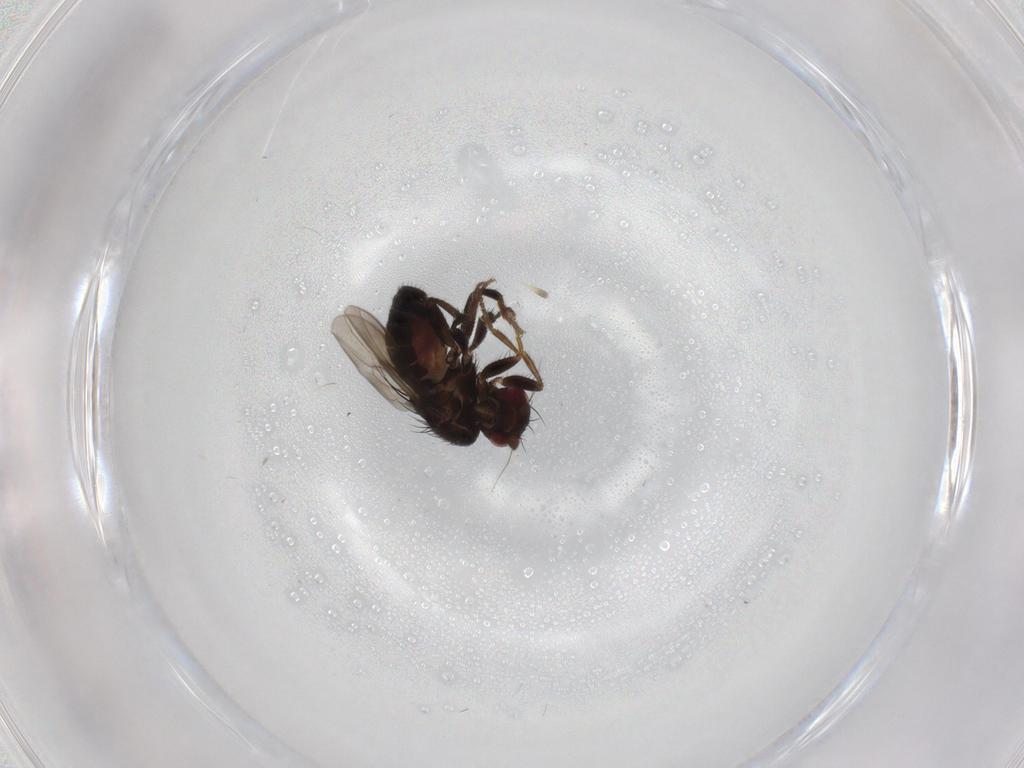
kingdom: Animalia
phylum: Arthropoda
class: Insecta
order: Diptera
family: Sphaeroceridae
